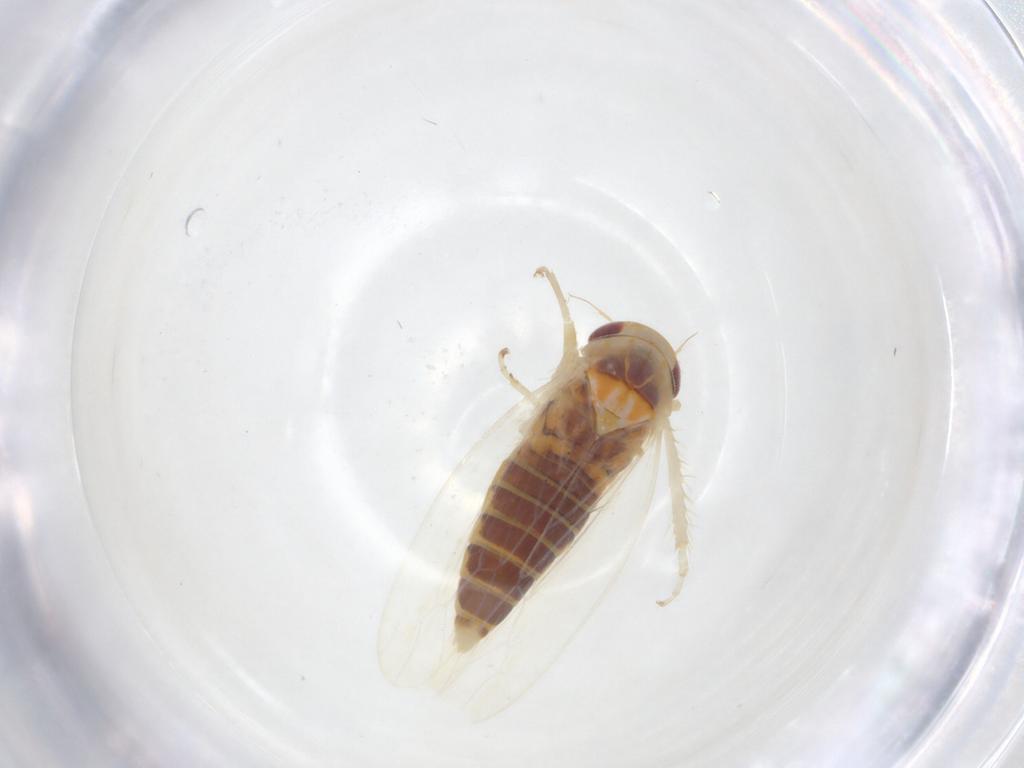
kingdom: Animalia
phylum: Arthropoda
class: Insecta
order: Hemiptera
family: Cicadellidae
